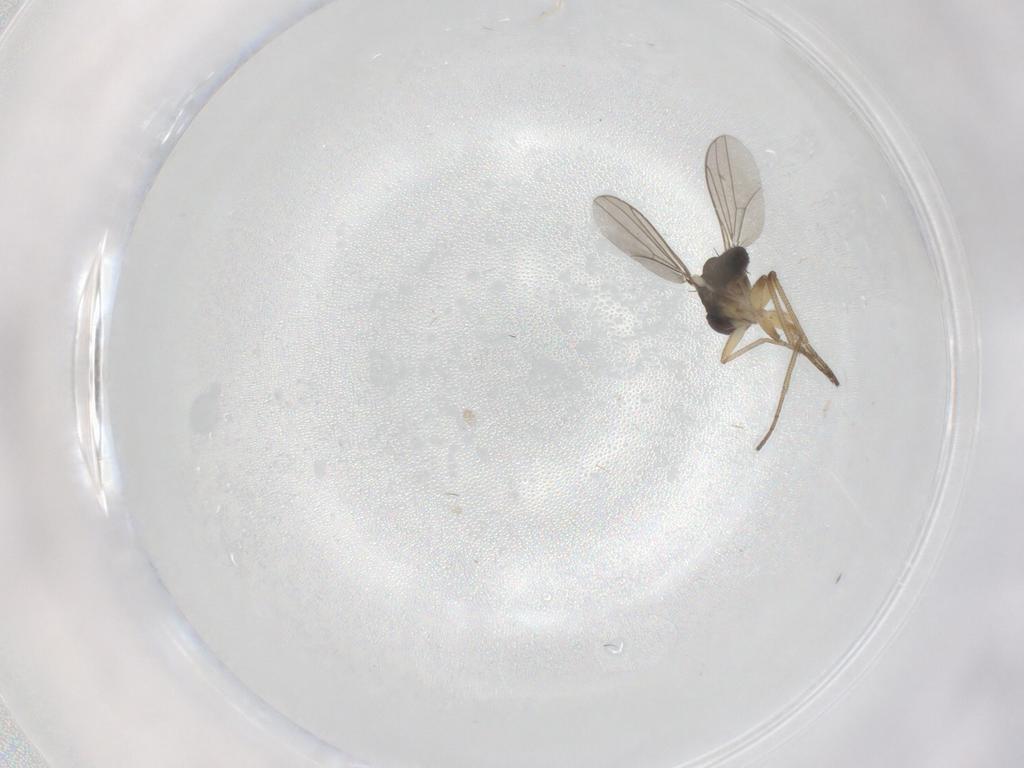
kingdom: Animalia
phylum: Arthropoda
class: Insecta
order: Diptera
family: Dolichopodidae
